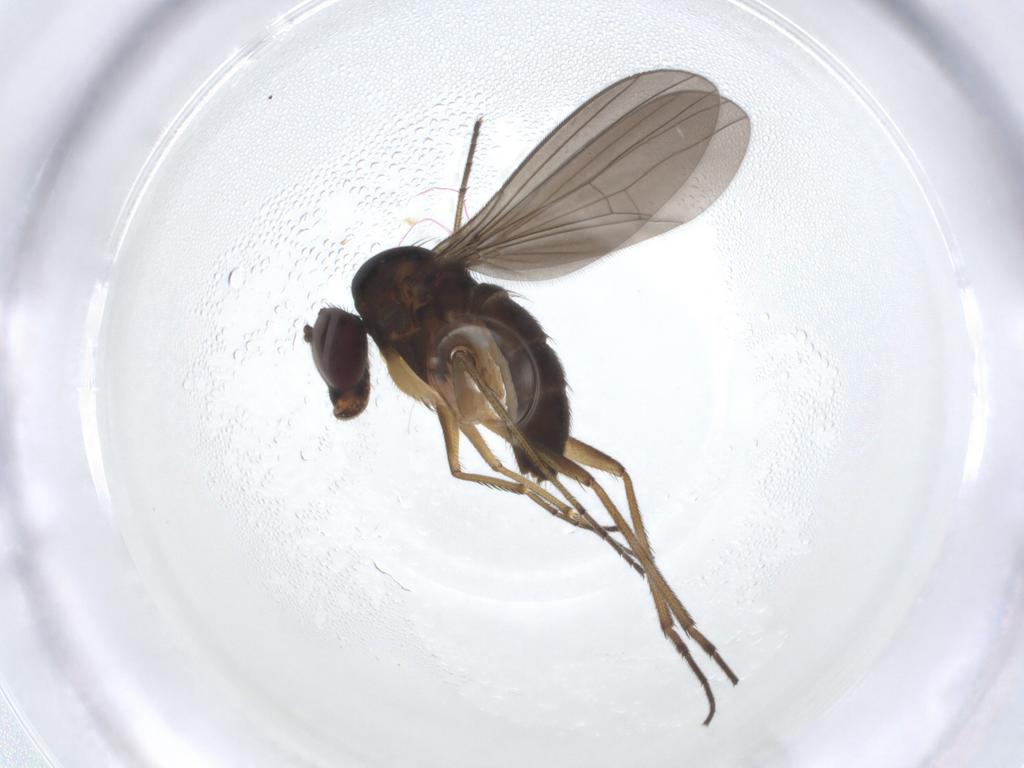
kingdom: Animalia
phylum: Arthropoda
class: Insecta
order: Diptera
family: Dolichopodidae
